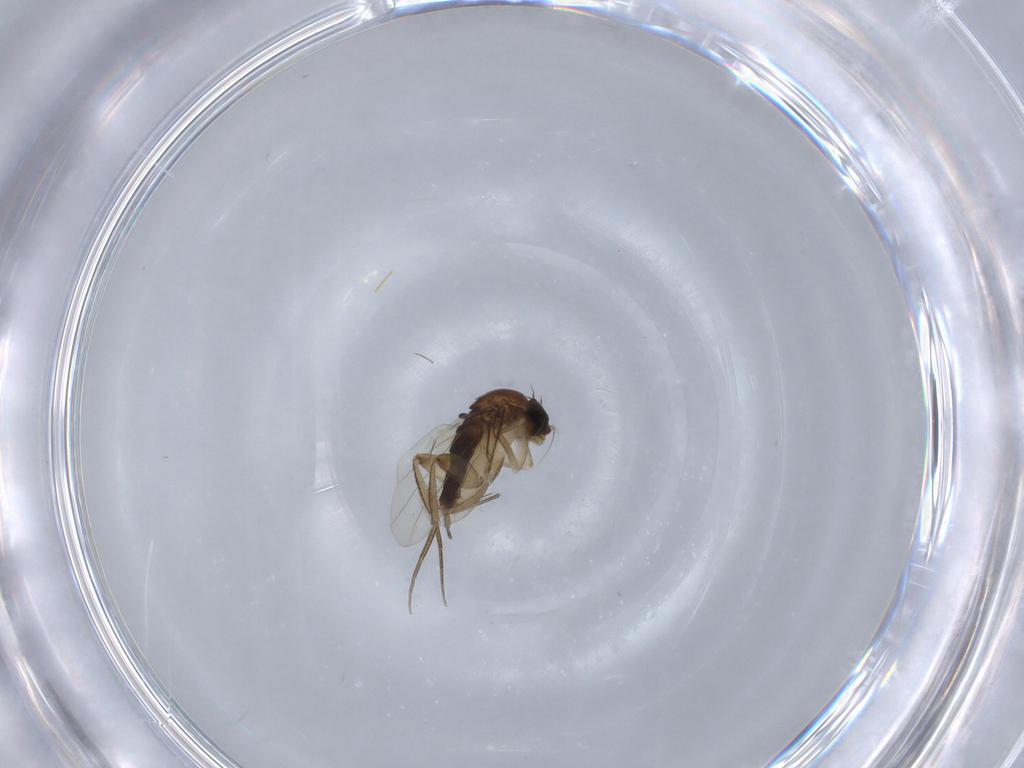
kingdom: Animalia
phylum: Arthropoda
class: Insecta
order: Diptera
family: Phoridae
